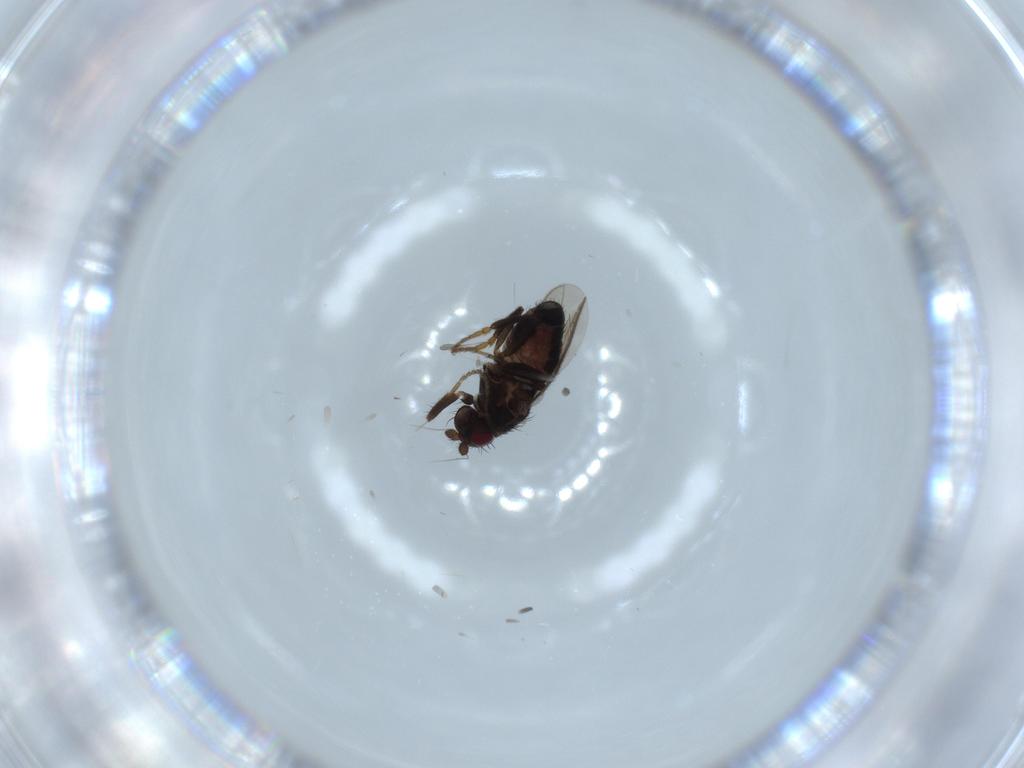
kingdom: Animalia
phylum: Arthropoda
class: Insecta
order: Diptera
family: Sphaeroceridae
